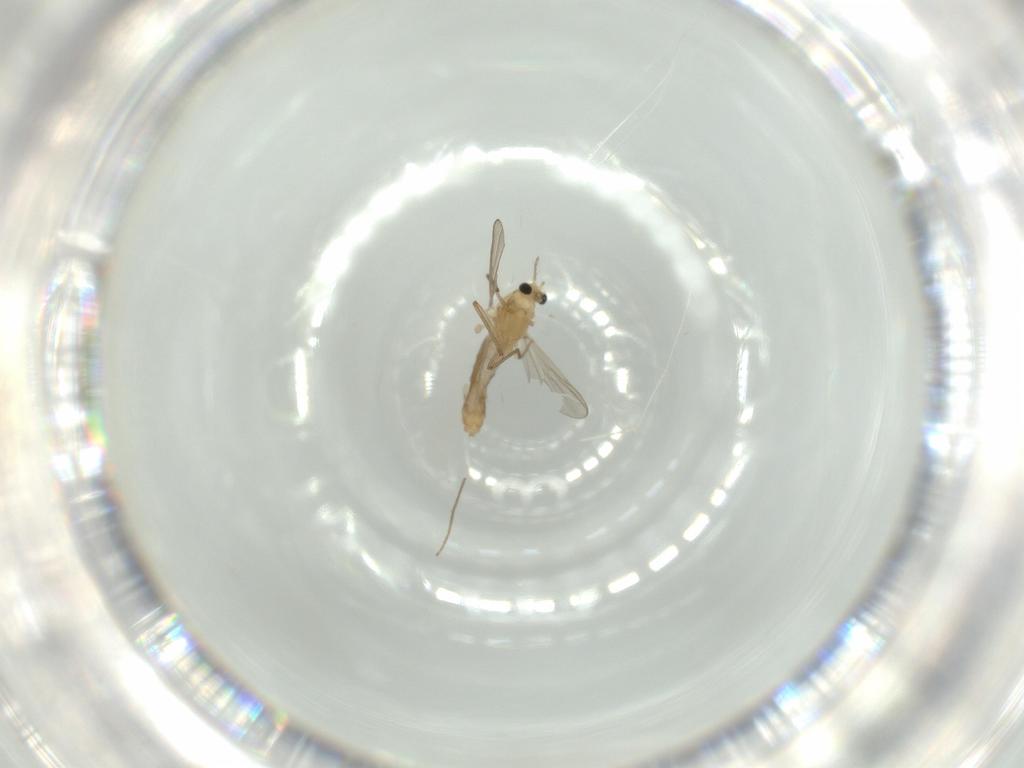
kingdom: Animalia
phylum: Arthropoda
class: Insecta
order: Diptera
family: Chironomidae
